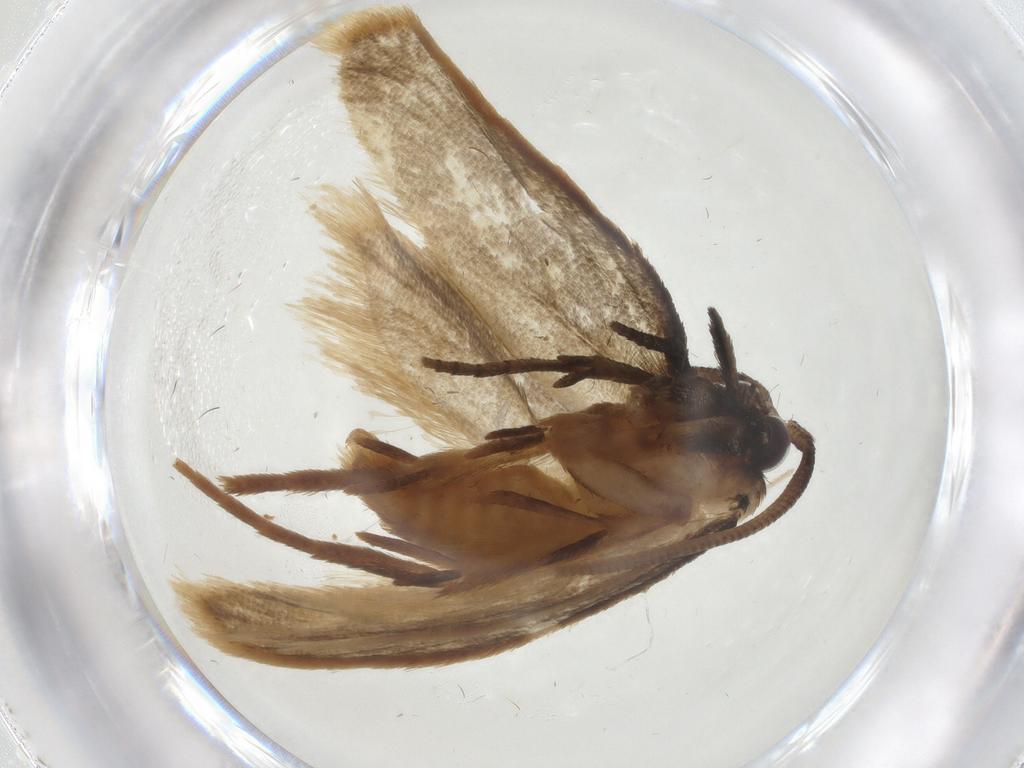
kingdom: Animalia
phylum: Arthropoda
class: Insecta
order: Lepidoptera
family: Tineidae
